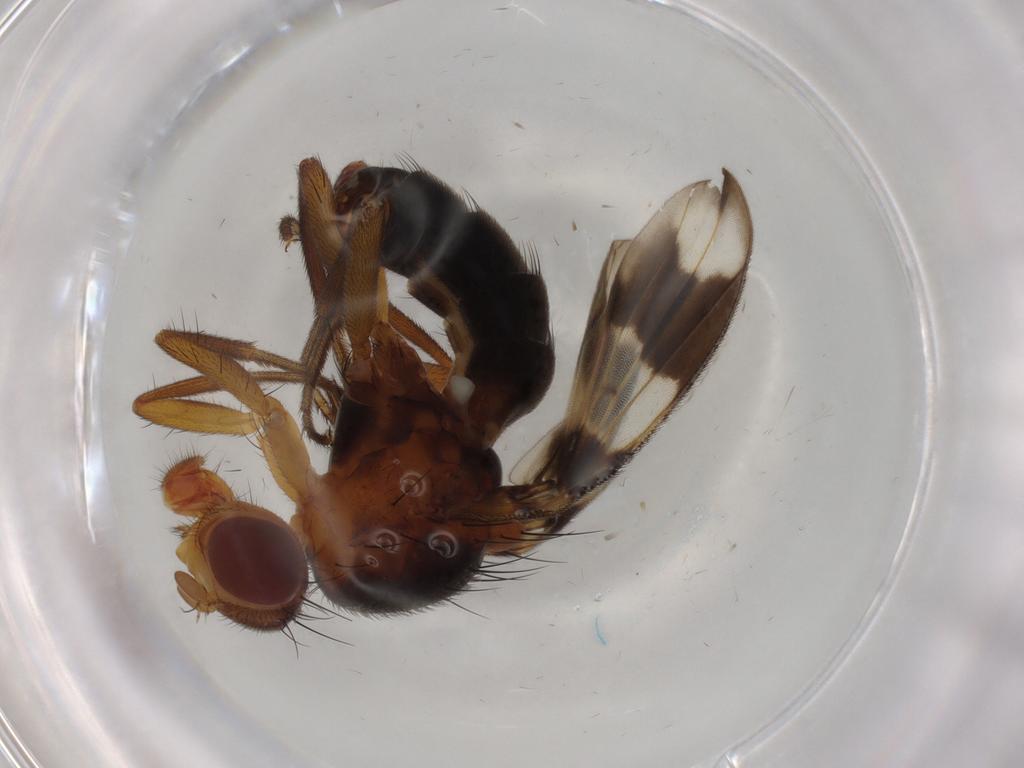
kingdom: Animalia
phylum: Arthropoda
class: Insecta
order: Diptera
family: Richardiidae
